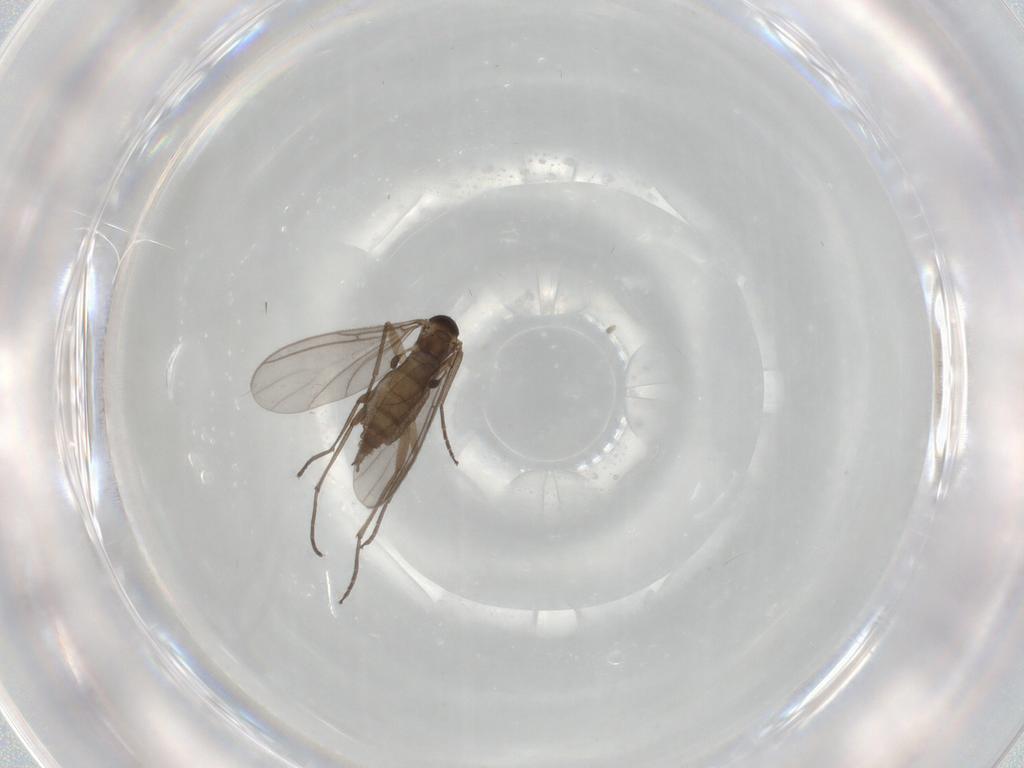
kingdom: Animalia
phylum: Arthropoda
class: Insecta
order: Diptera
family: Sciaridae
